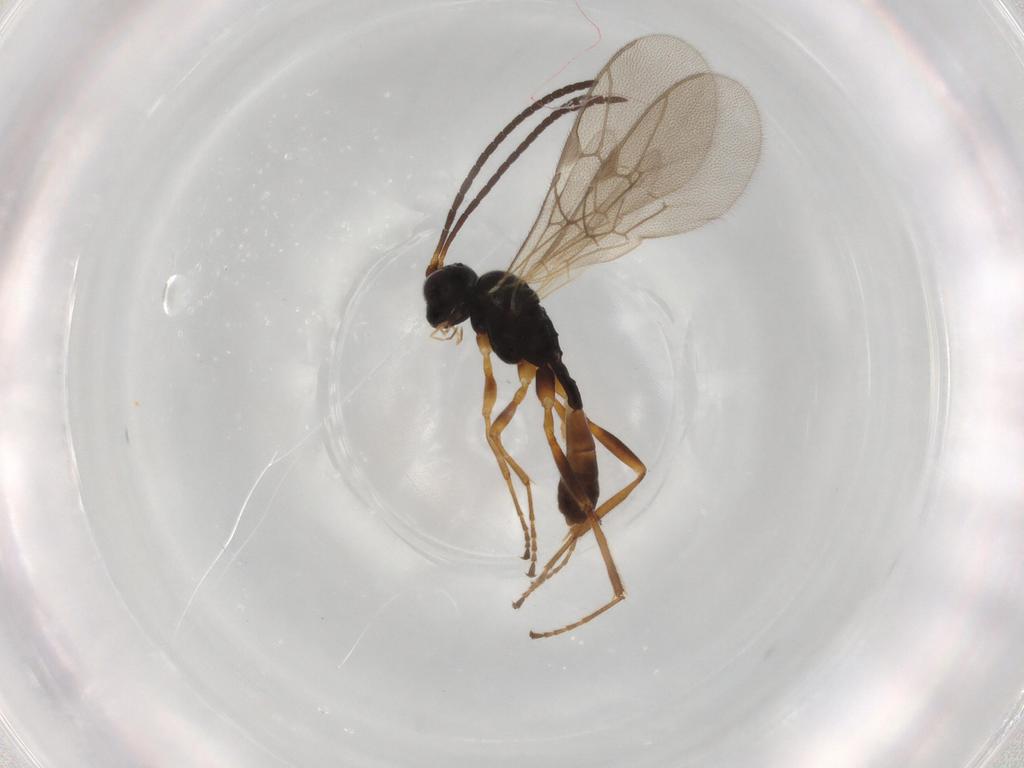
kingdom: Animalia
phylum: Arthropoda
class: Insecta
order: Hymenoptera
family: Ichneumonidae
